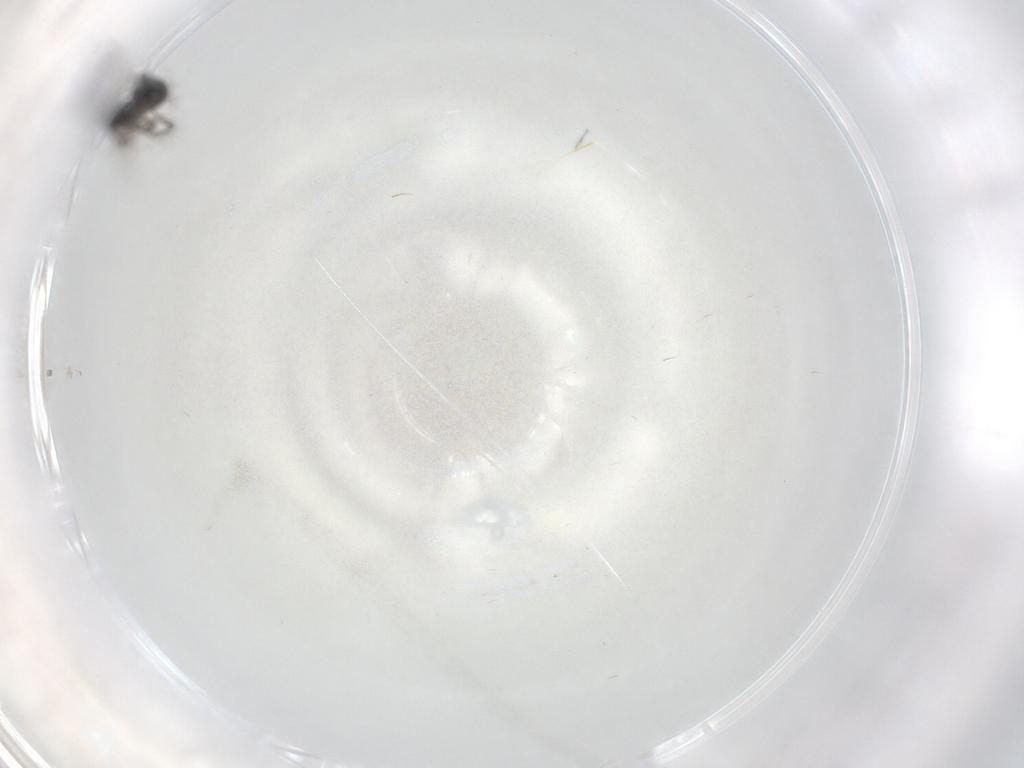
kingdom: Animalia
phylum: Arthropoda
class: Insecta
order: Hymenoptera
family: Scelionidae
